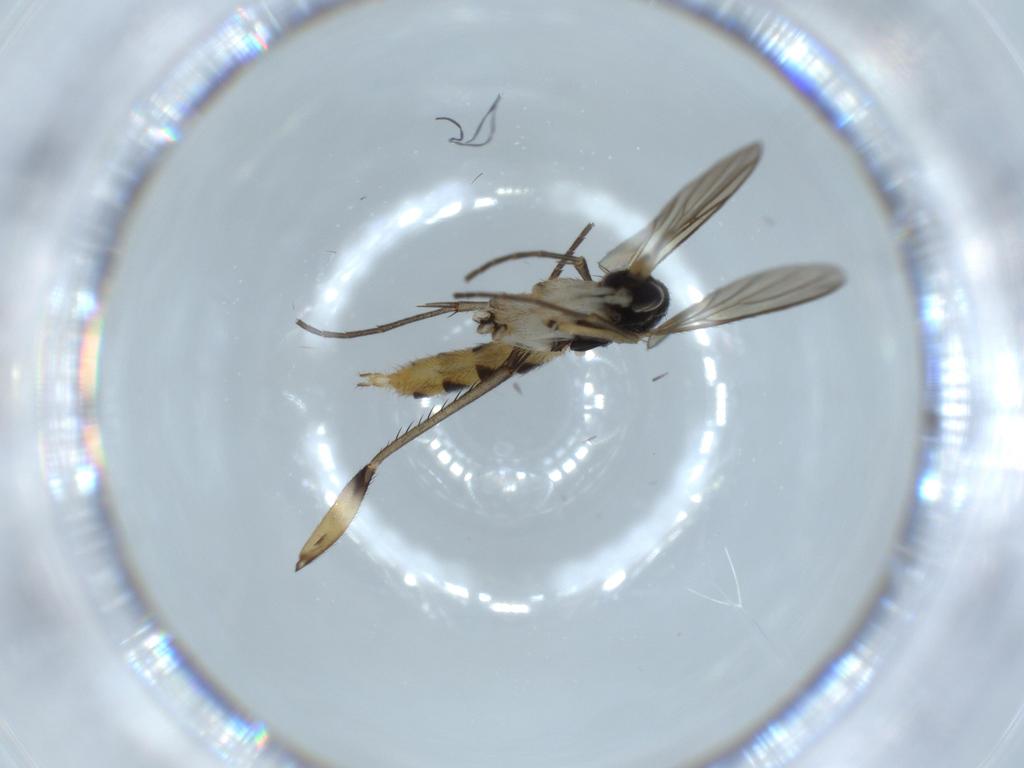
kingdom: Animalia
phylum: Arthropoda
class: Insecta
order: Diptera
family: Mycetophilidae
